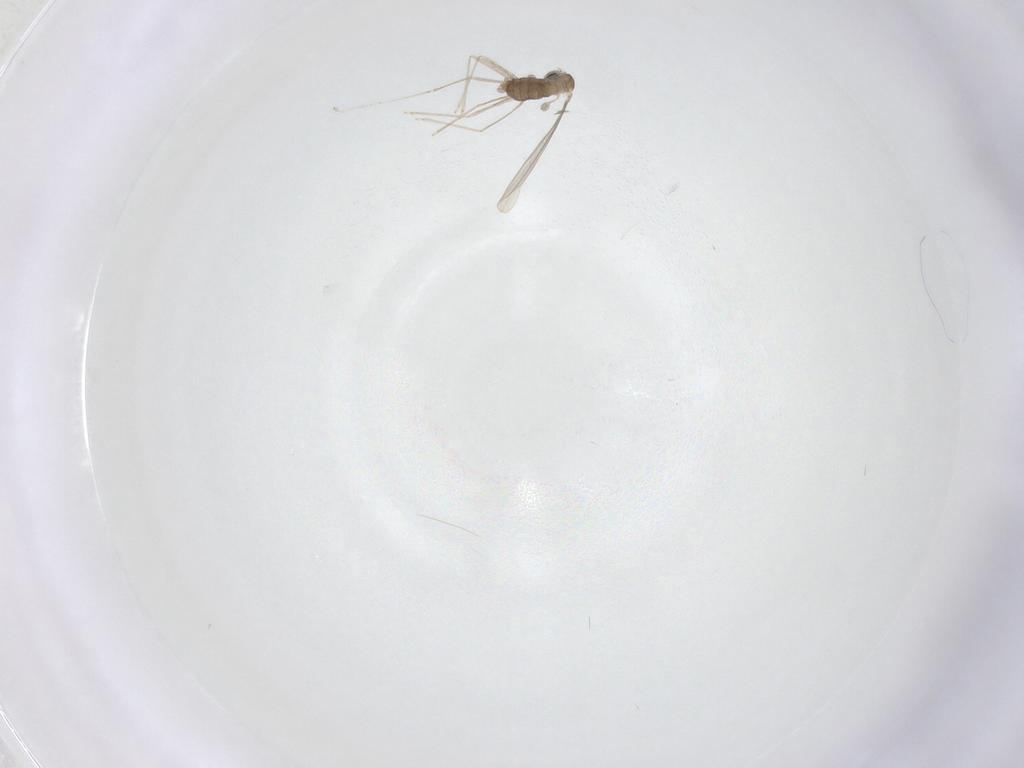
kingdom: Animalia
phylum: Arthropoda
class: Insecta
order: Diptera
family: Cecidomyiidae
